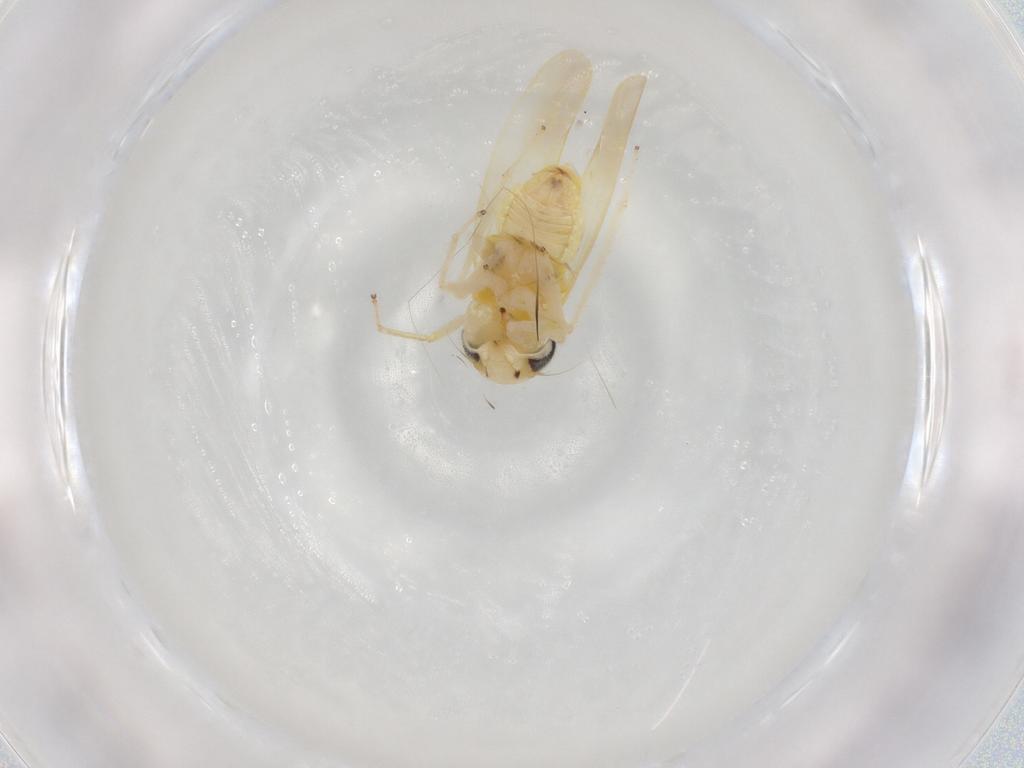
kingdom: Animalia
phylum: Arthropoda
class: Insecta
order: Hemiptera
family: Cicadellidae
